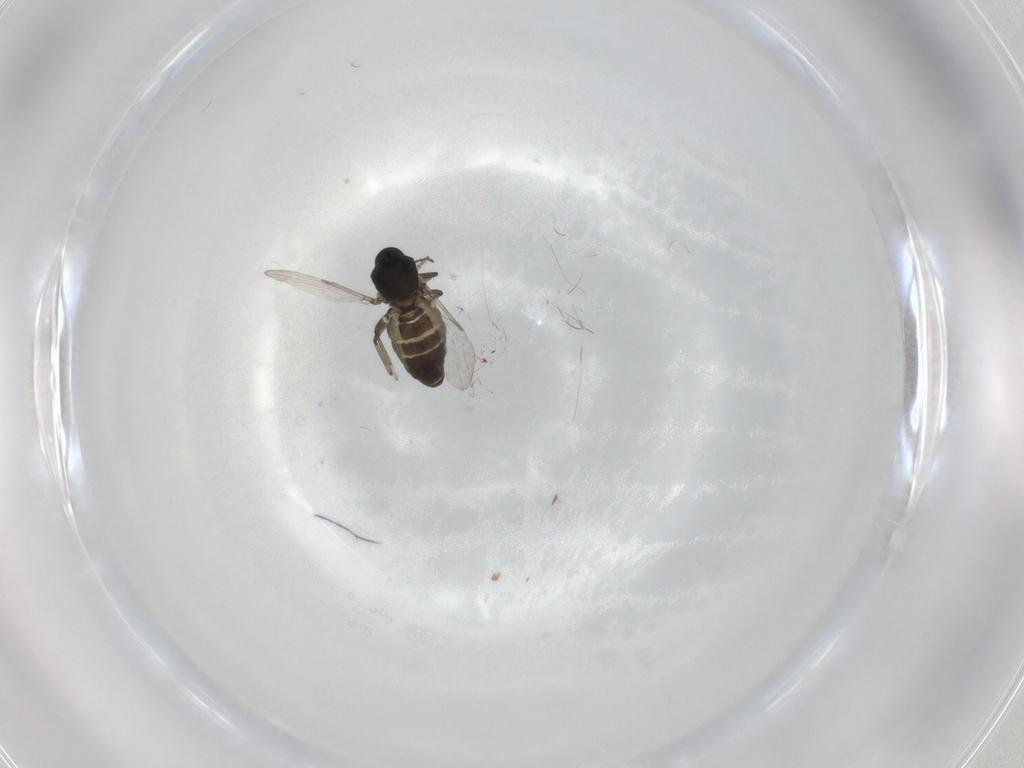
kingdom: Animalia
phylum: Arthropoda
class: Insecta
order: Diptera
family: Ceratopogonidae
